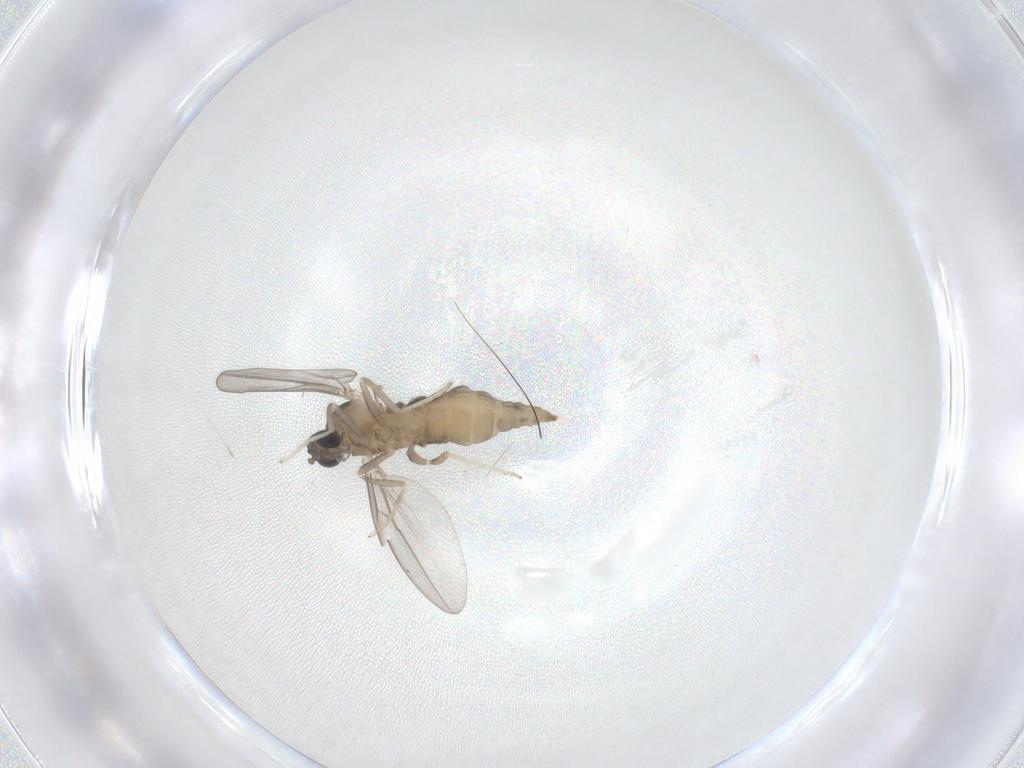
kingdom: Animalia
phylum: Arthropoda
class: Insecta
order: Diptera
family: Cecidomyiidae
